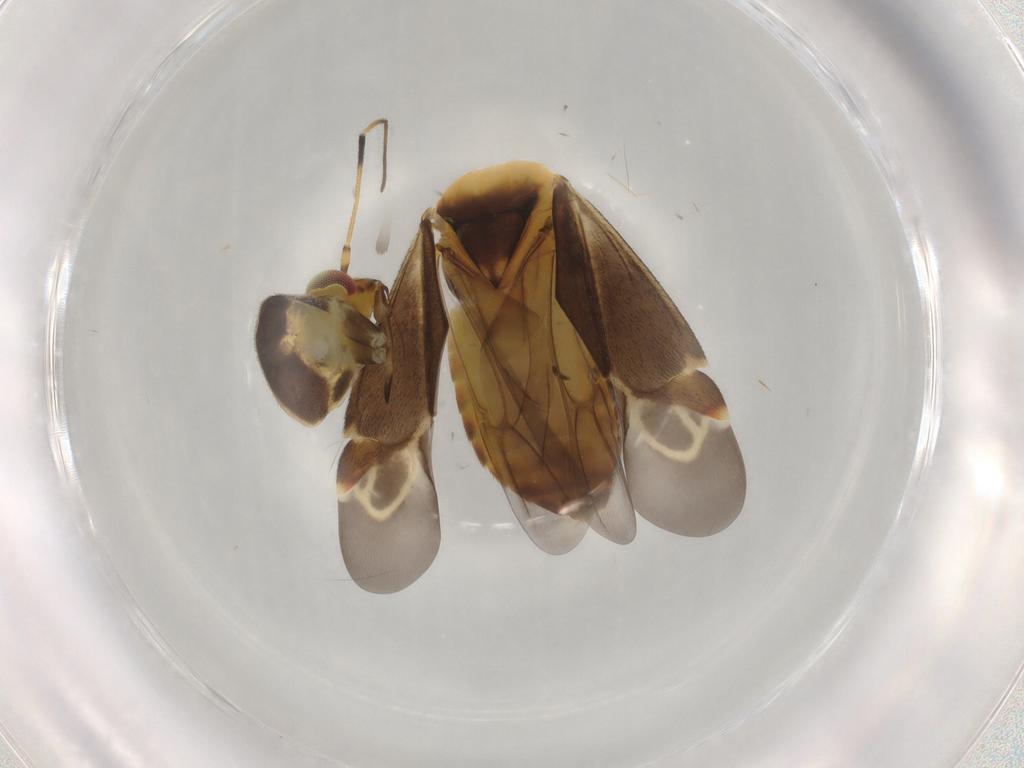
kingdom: Animalia
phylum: Arthropoda
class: Insecta
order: Hemiptera
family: Miridae
